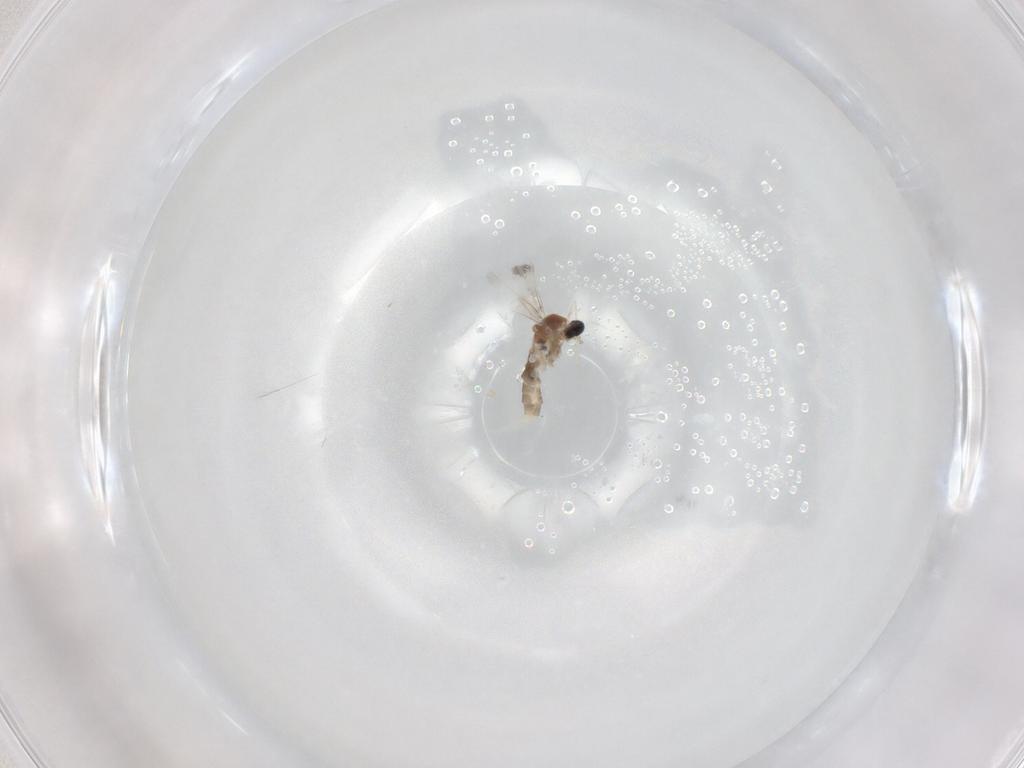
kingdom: Animalia
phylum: Arthropoda
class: Insecta
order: Diptera
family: Cecidomyiidae
